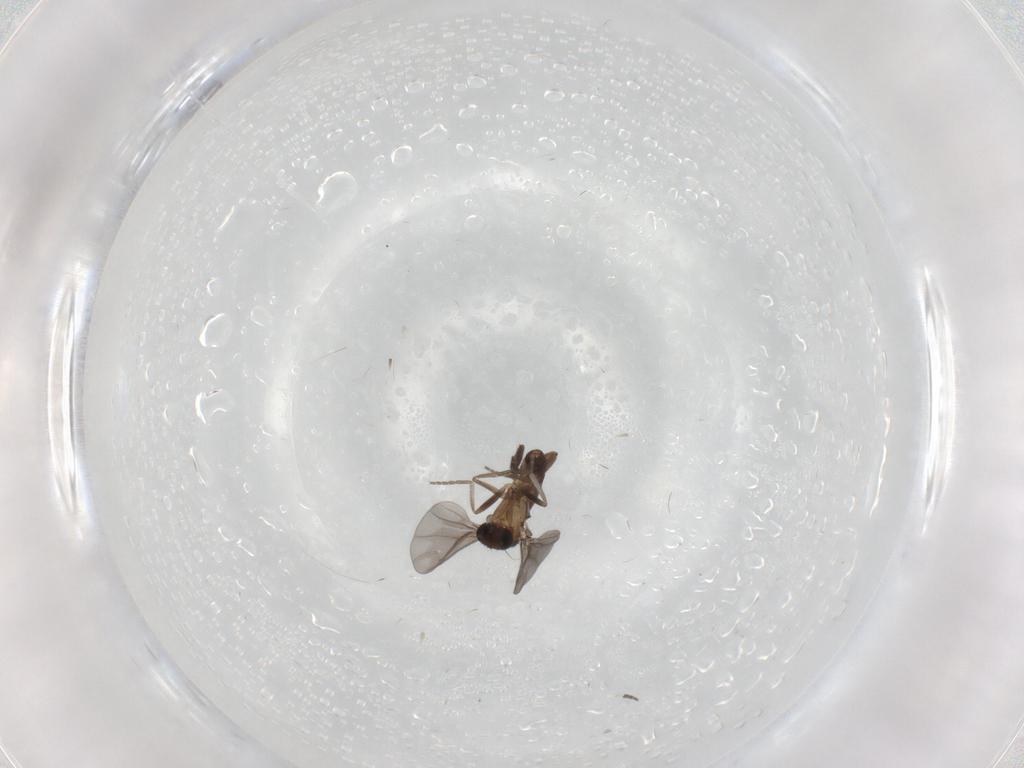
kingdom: Animalia
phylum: Arthropoda
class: Insecta
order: Diptera
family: Phoridae
